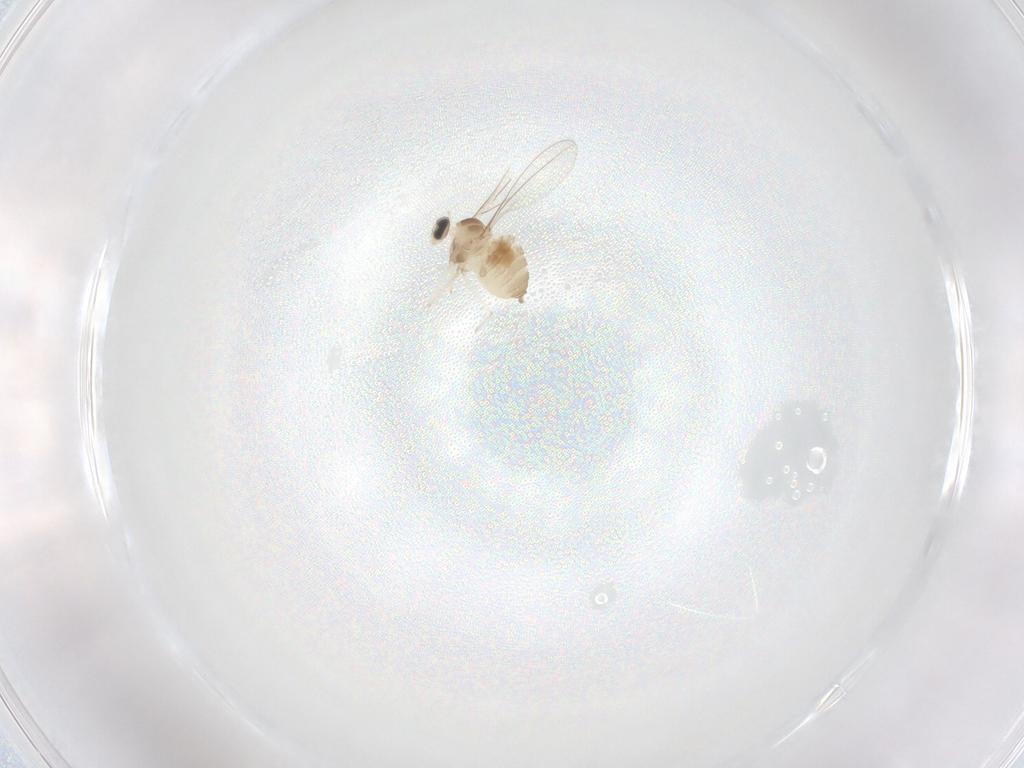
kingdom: Animalia
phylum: Arthropoda
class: Insecta
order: Diptera
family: Cecidomyiidae
